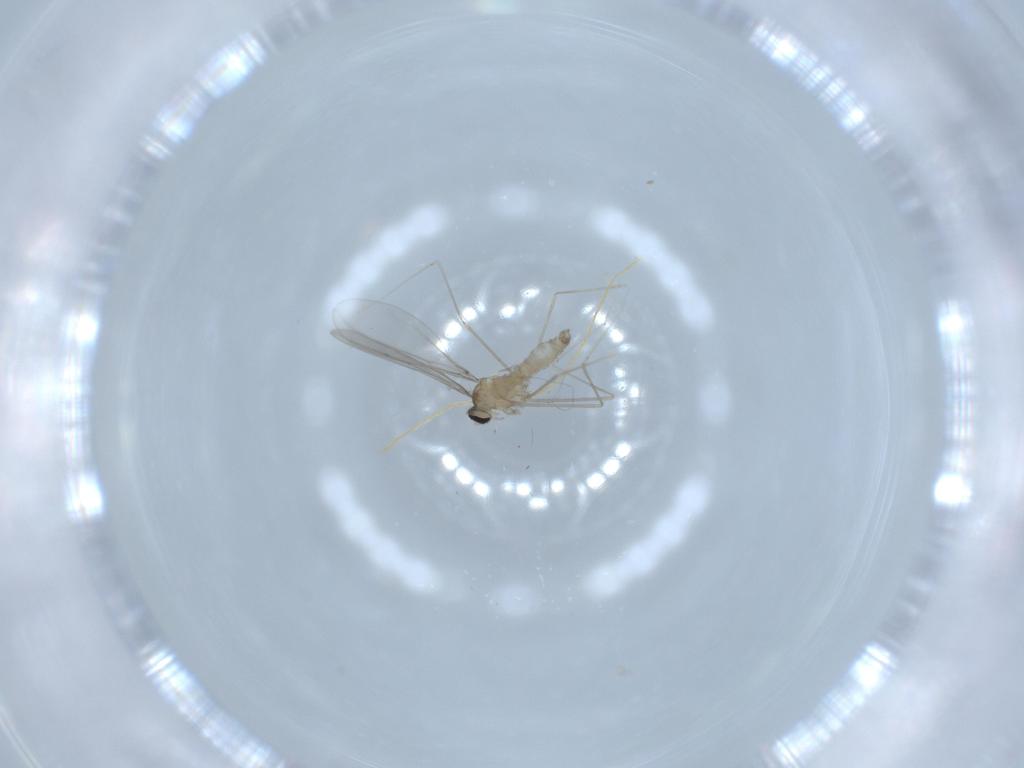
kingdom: Animalia
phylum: Arthropoda
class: Insecta
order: Diptera
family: Cecidomyiidae
